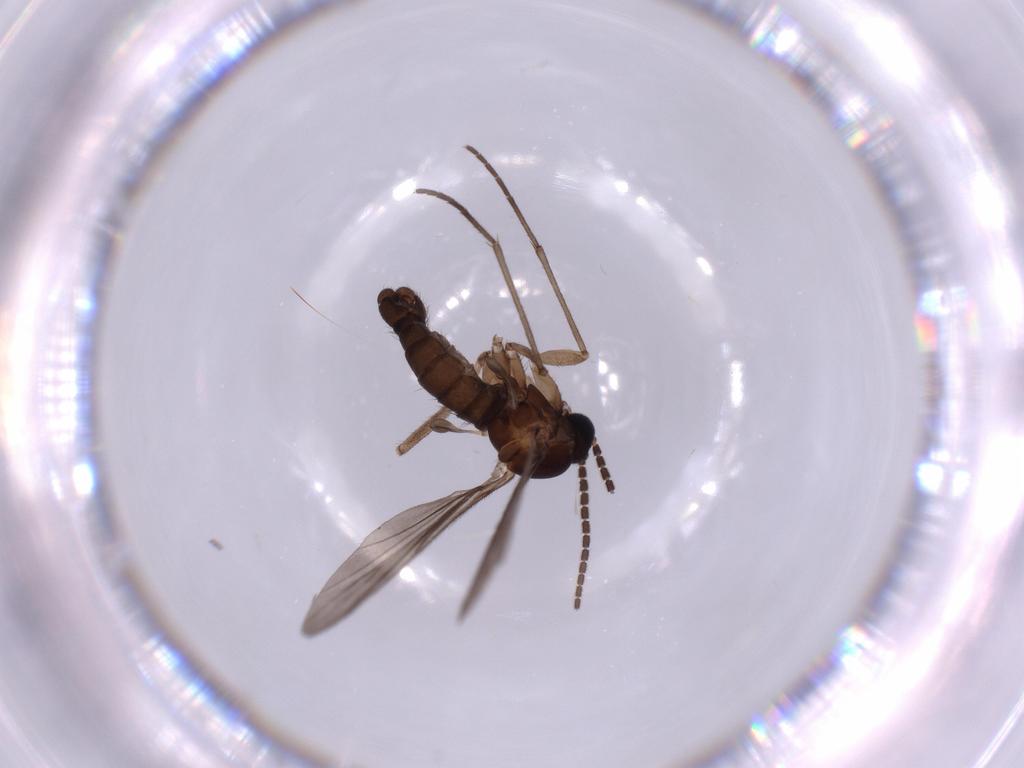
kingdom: Animalia
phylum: Arthropoda
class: Insecta
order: Diptera
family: Sciaridae
